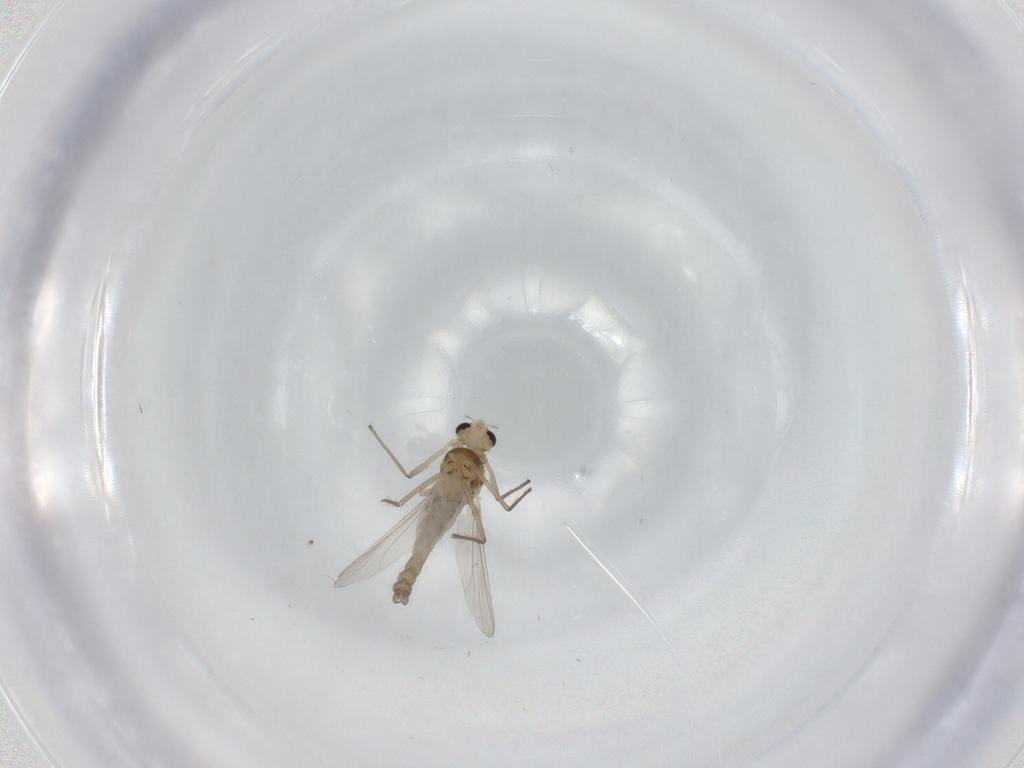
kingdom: Animalia
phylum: Arthropoda
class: Insecta
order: Diptera
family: Chironomidae
